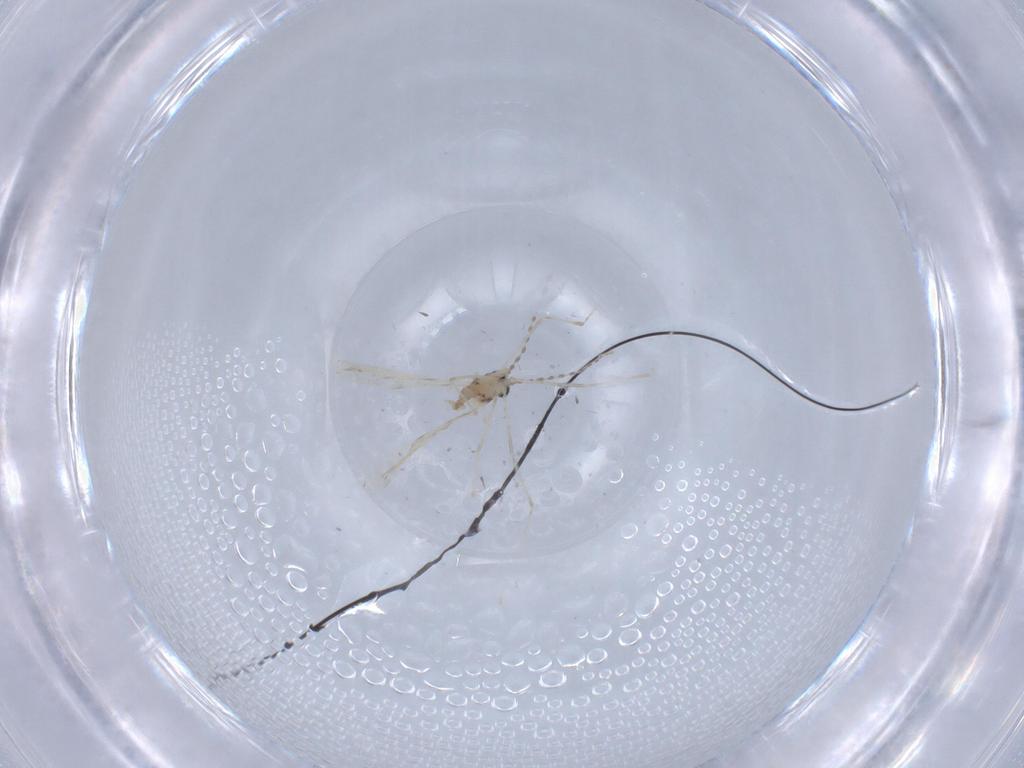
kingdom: Animalia
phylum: Arthropoda
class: Insecta
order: Diptera
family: Cecidomyiidae
